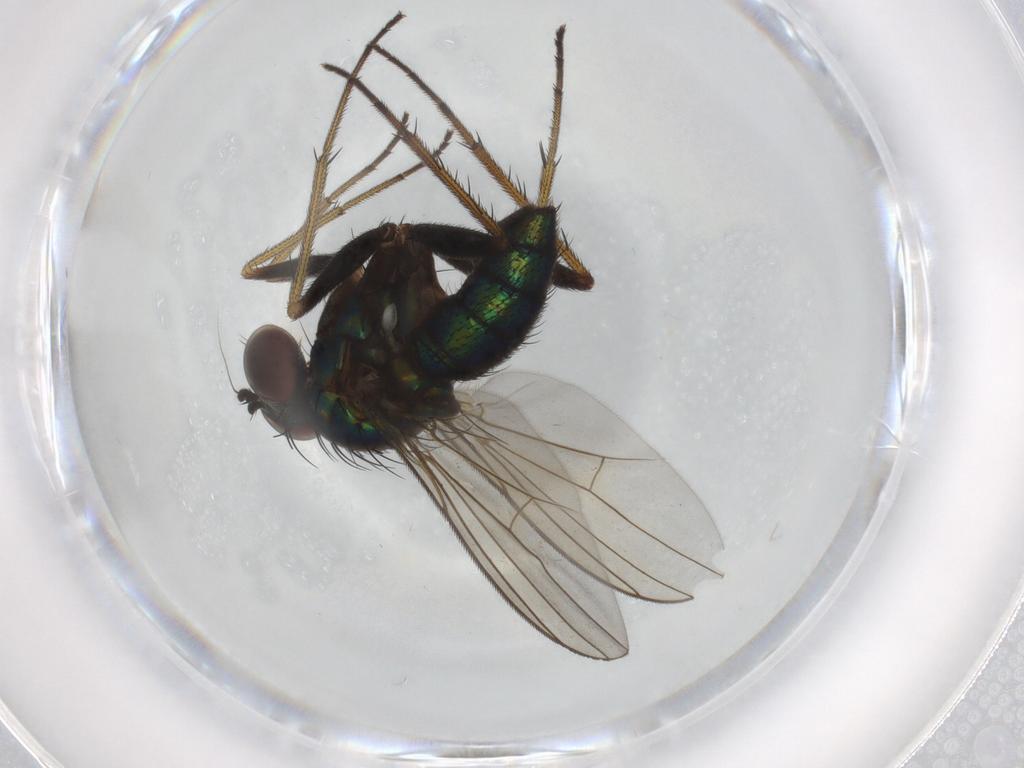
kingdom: Animalia
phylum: Arthropoda
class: Insecta
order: Diptera
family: Dolichopodidae
